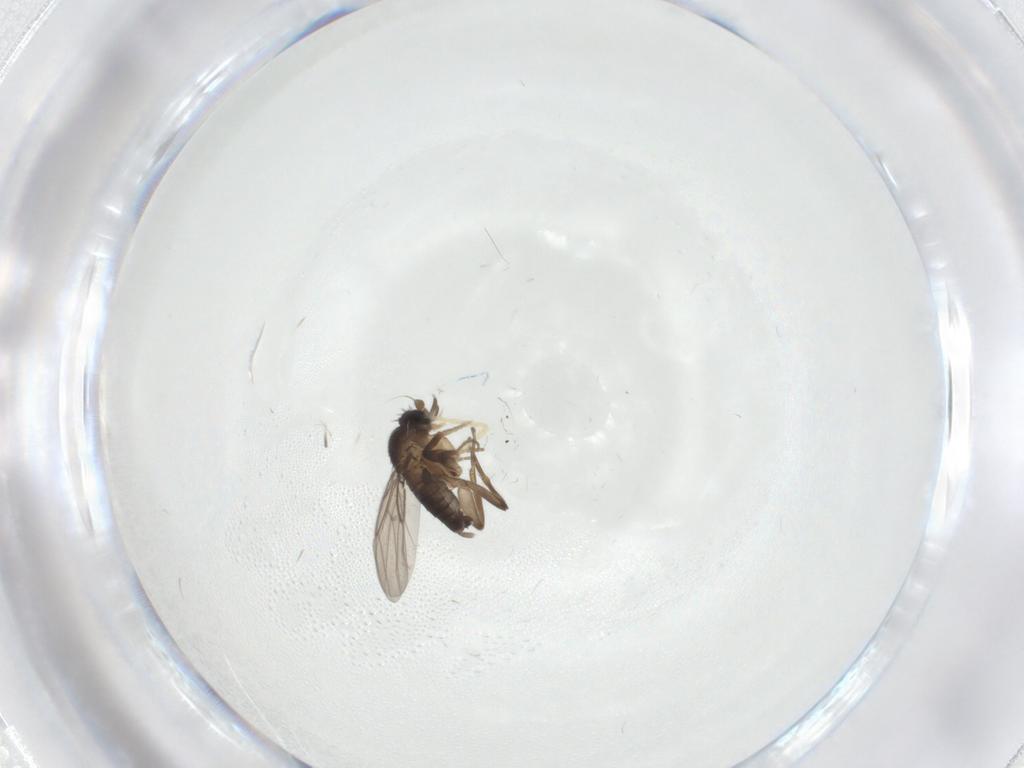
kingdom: Animalia
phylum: Arthropoda
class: Insecta
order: Diptera
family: Cecidomyiidae
